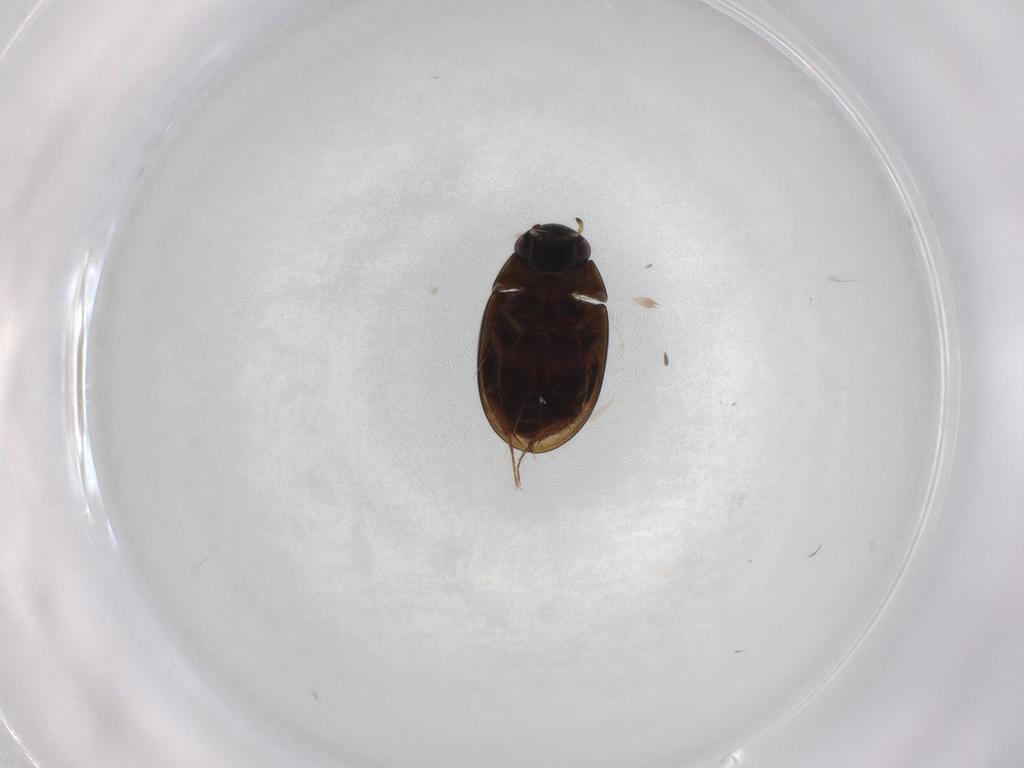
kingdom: Animalia
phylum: Arthropoda
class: Insecta
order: Coleoptera
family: Hydrophilidae
